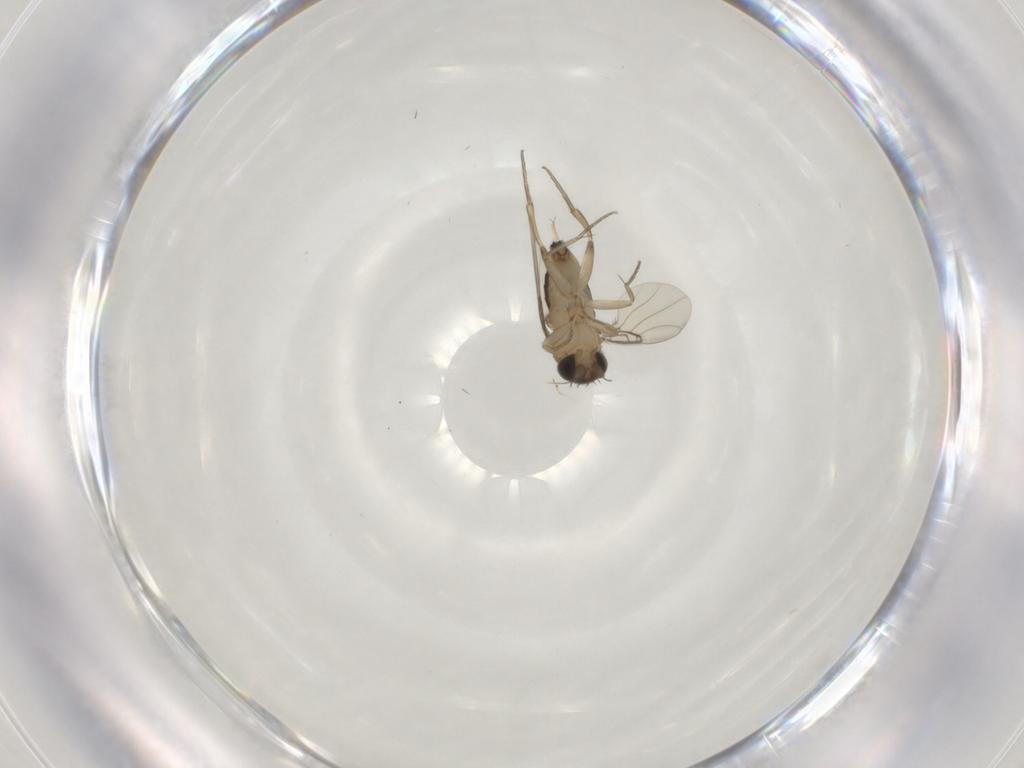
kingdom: Animalia
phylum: Arthropoda
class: Insecta
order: Diptera
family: Phoridae
